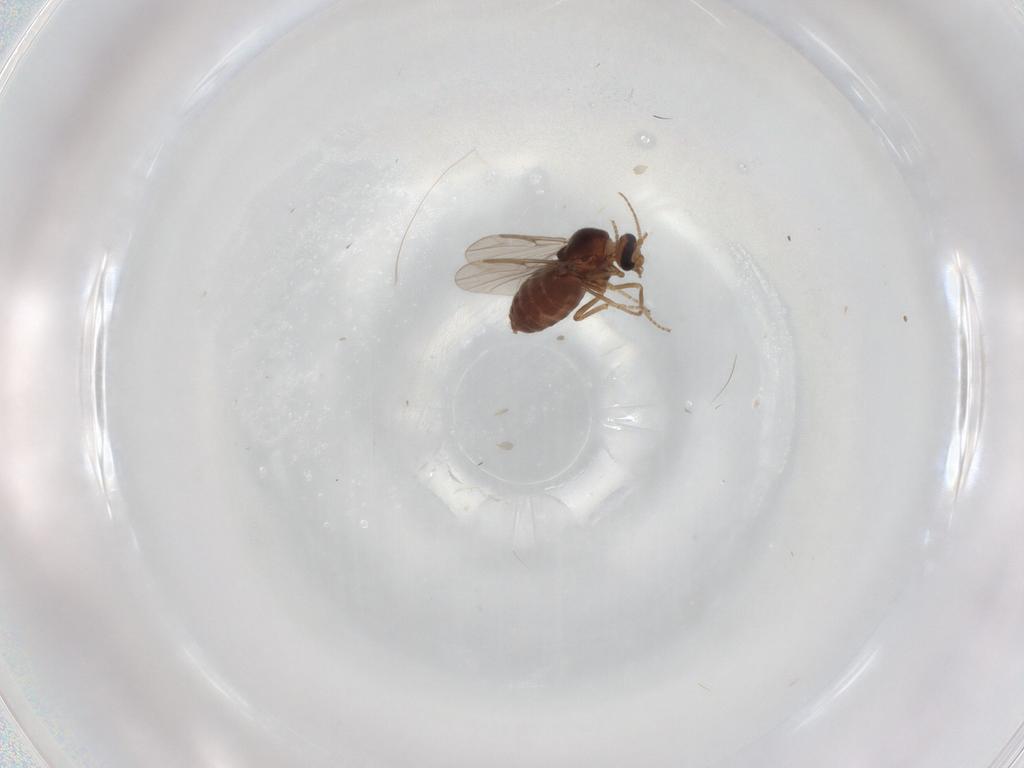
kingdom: Animalia
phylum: Arthropoda
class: Insecta
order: Diptera
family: Ceratopogonidae
